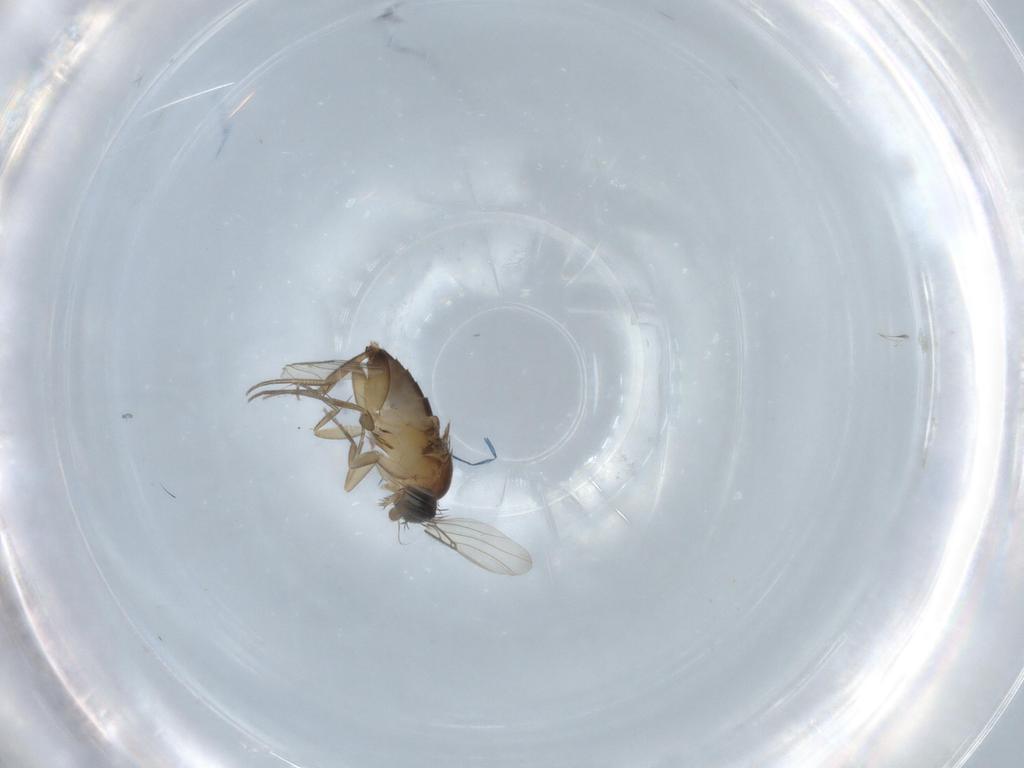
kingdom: Animalia
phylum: Arthropoda
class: Insecta
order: Diptera
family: Phoridae
